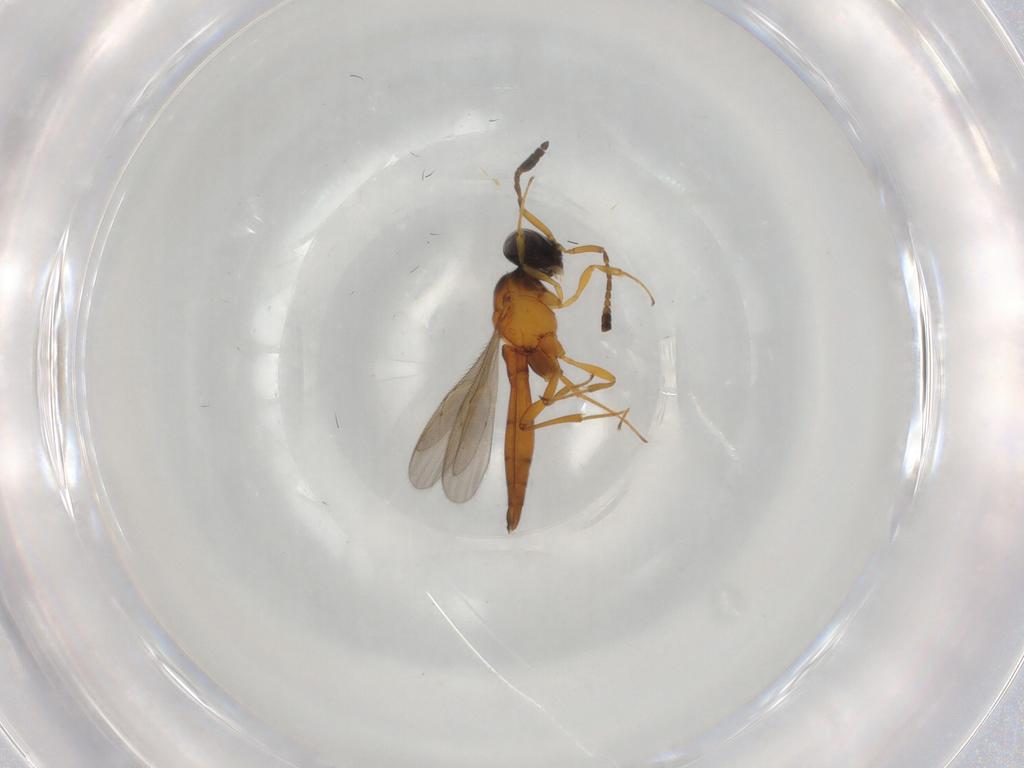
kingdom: Animalia
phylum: Arthropoda
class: Insecta
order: Hymenoptera
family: Scelionidae
